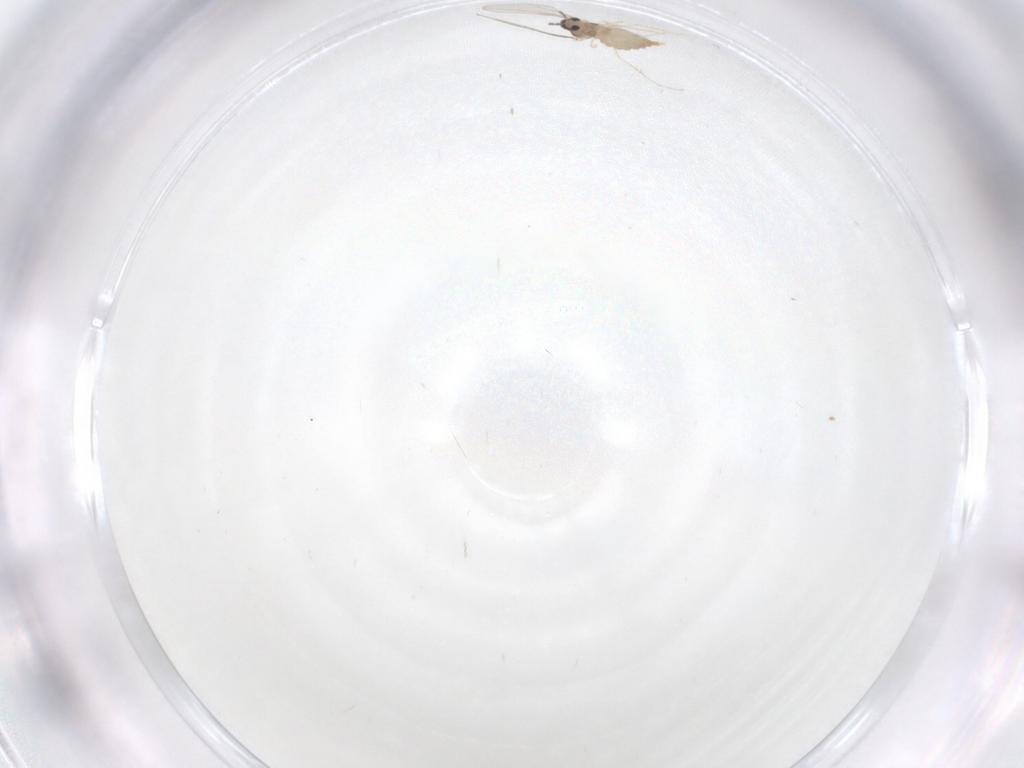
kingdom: Animalia
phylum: Arthropoda
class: Insecta
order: Diptera
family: Cecidomyiidae
